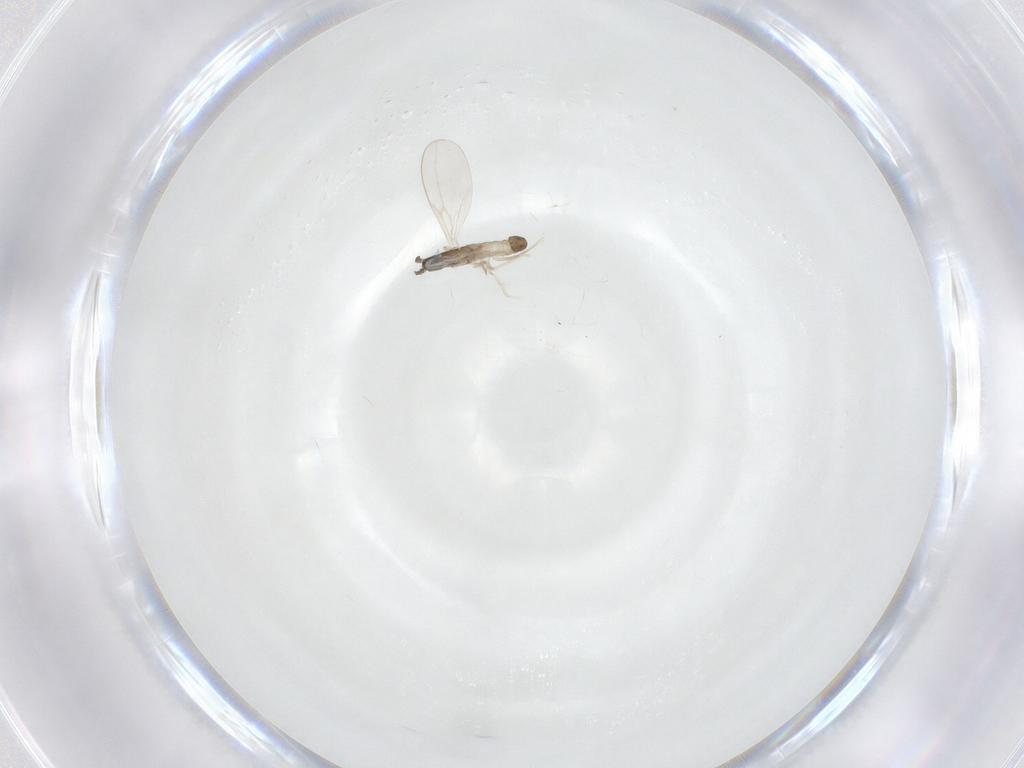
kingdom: Animalia
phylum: Arthropoda
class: Insecta
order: Diptera
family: Cecidomyiidae
